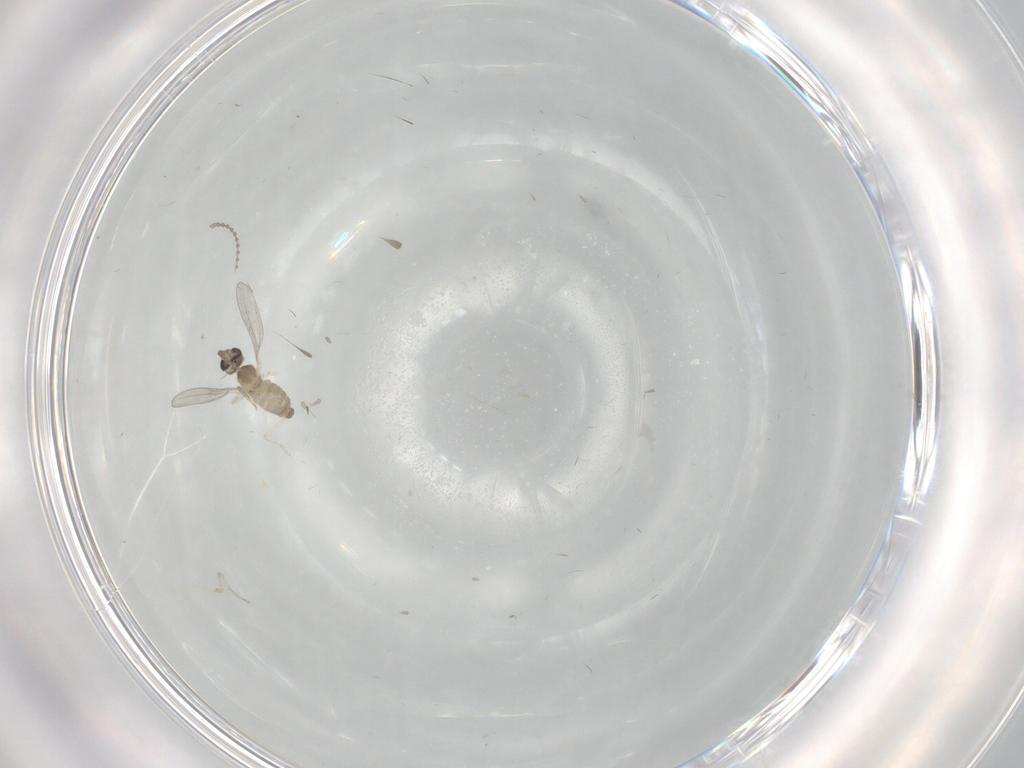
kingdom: Animalia
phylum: Arthropoda
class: Insecta
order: Diptera
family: Cecidomyiidae
